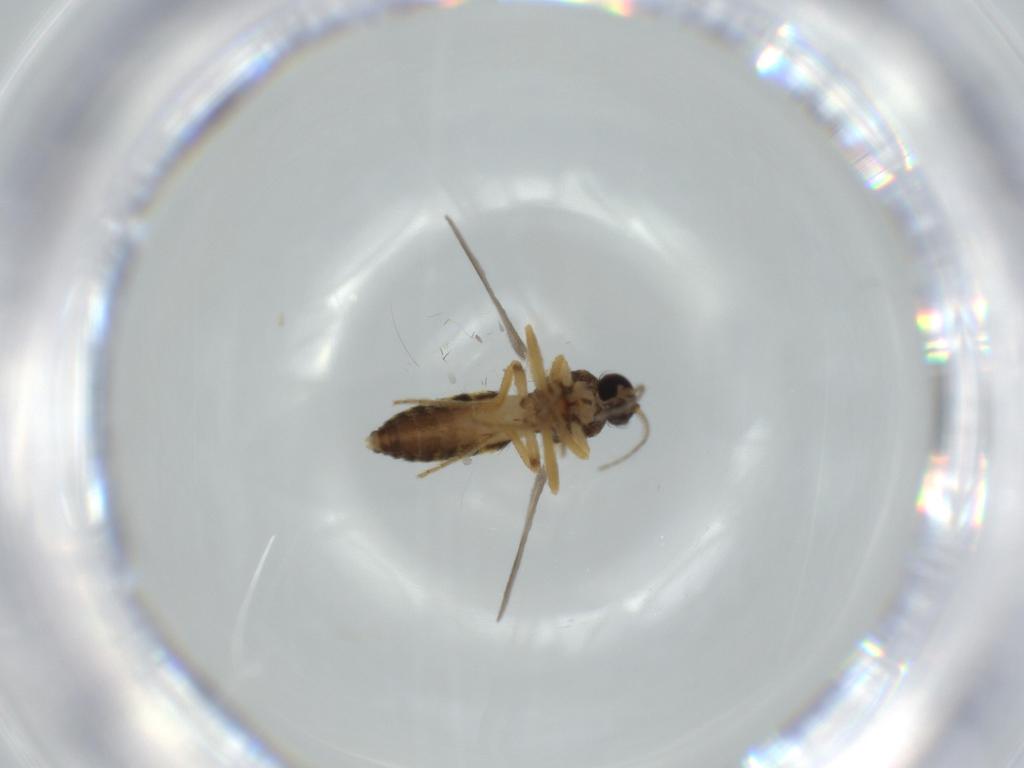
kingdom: Animalia
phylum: Arthropoda
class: Insecta
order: Diptera
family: Ceratopogonidae
